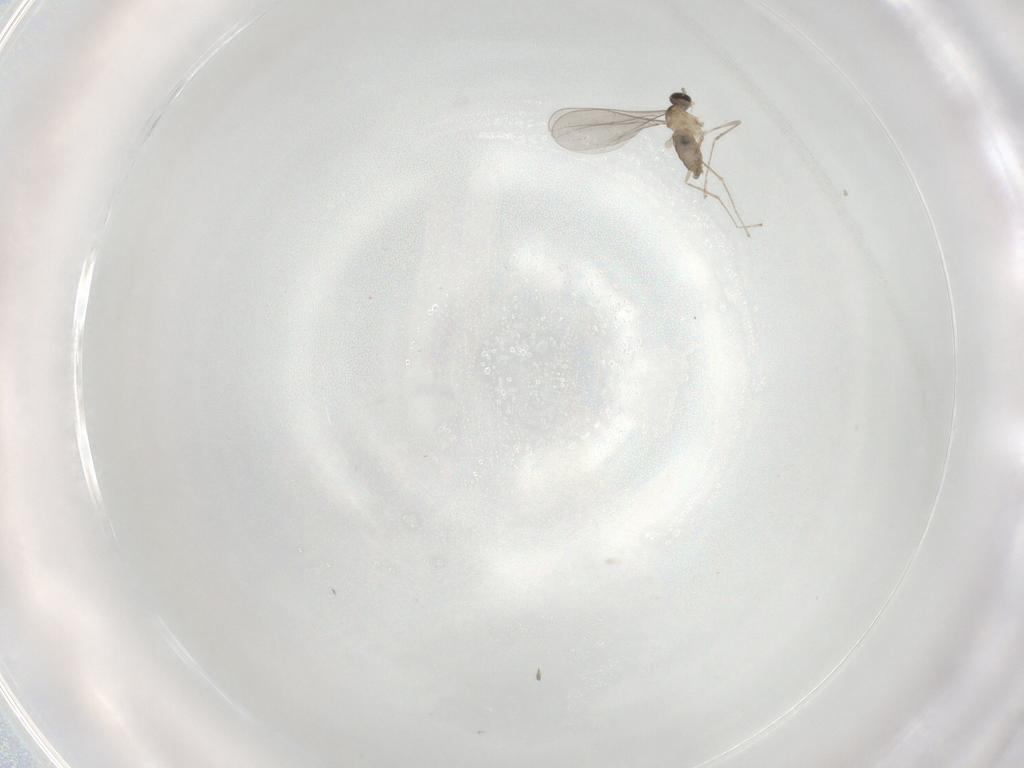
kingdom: Animalia
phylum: Arthropoda
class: Insecta
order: Diptera
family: Cecidomyiidae
